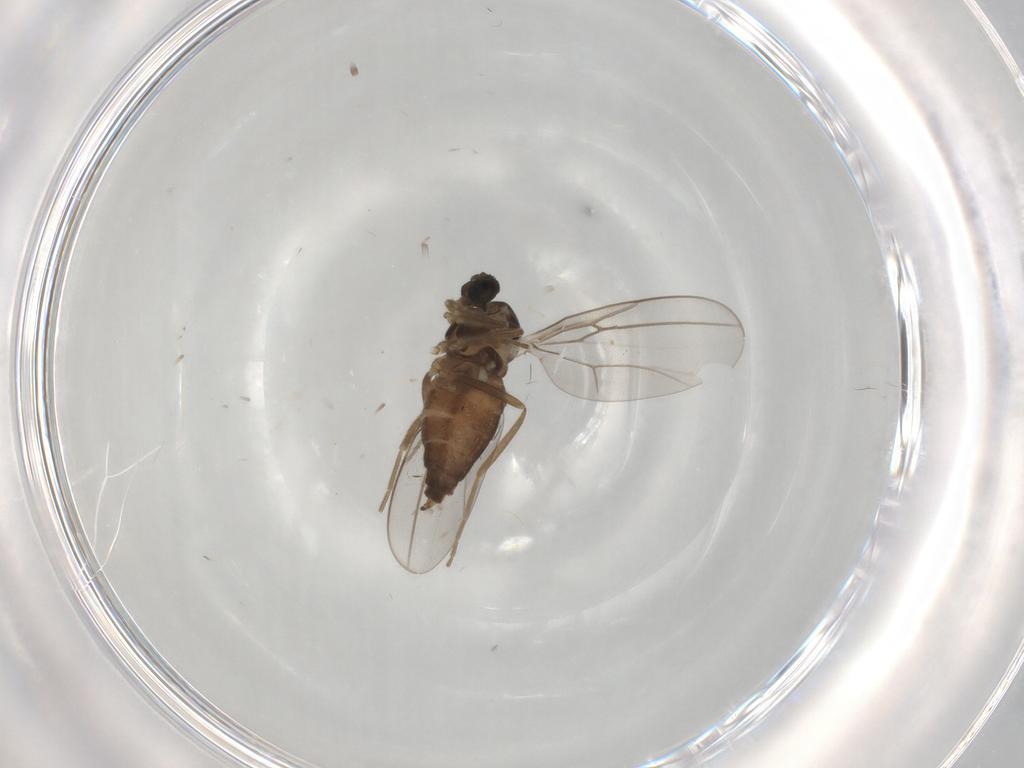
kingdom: Animalia
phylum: Arthropoda
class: Insecta
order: Diptera
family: Cecidomyiidae
